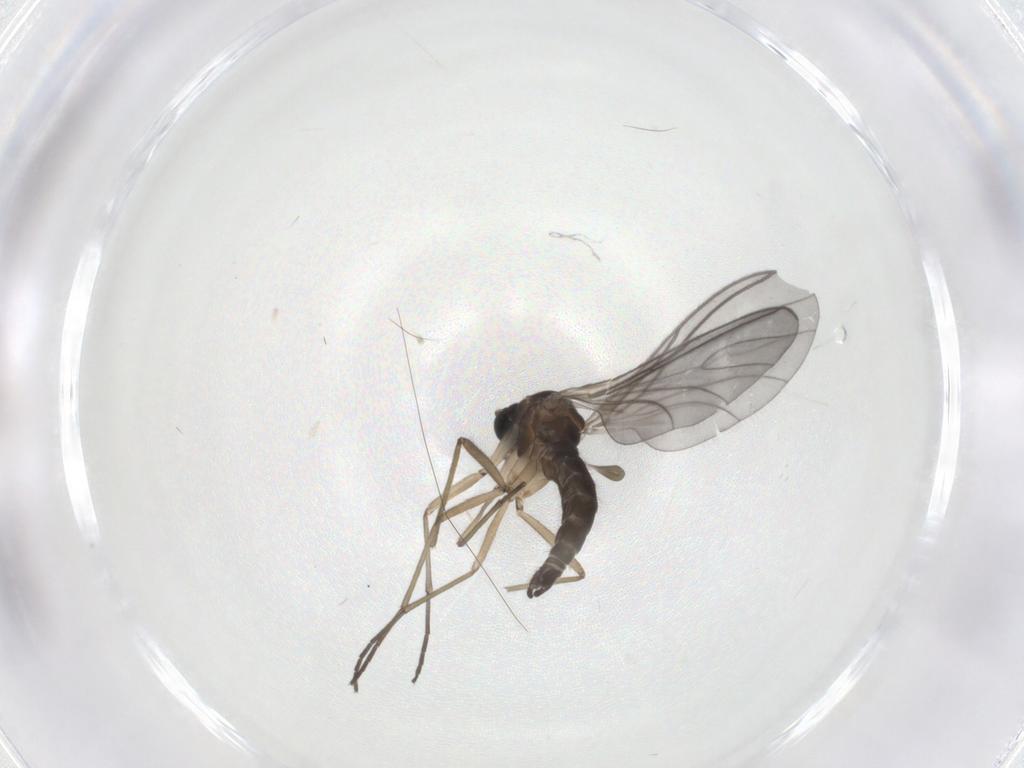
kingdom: Animalia
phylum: Arthropoda
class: Insecta
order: Diptera
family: Sciaridae
